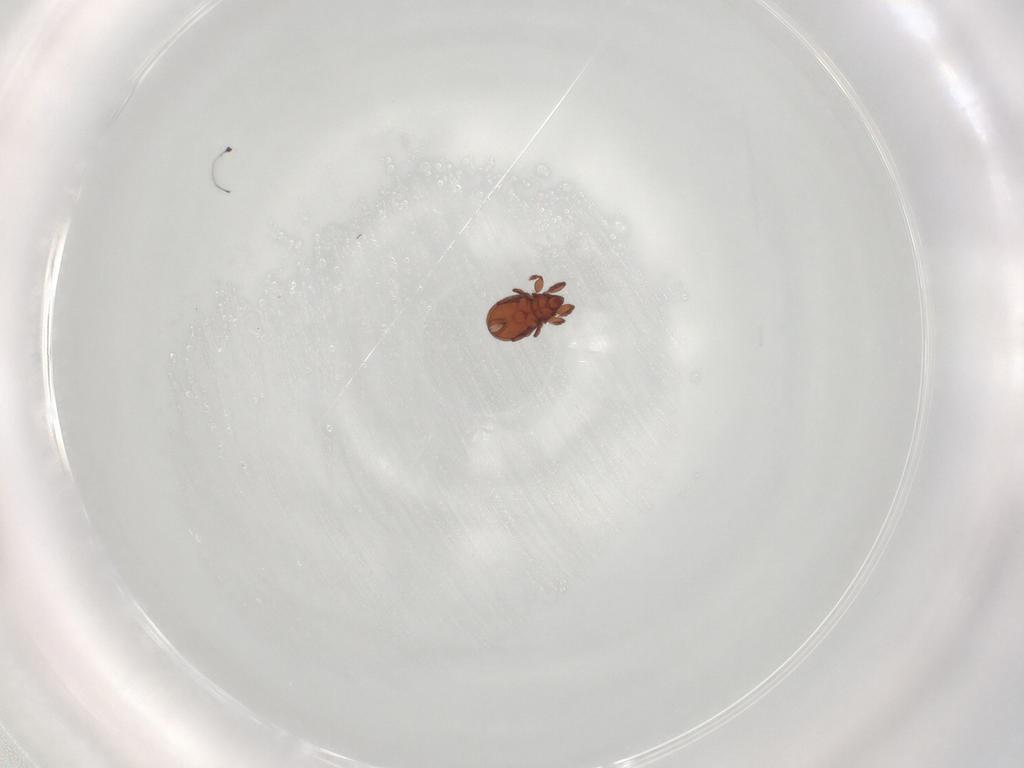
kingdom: Animalia
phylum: Arthropoda
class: Arachnida
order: Sarcoptiformes
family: Eremaeidae
